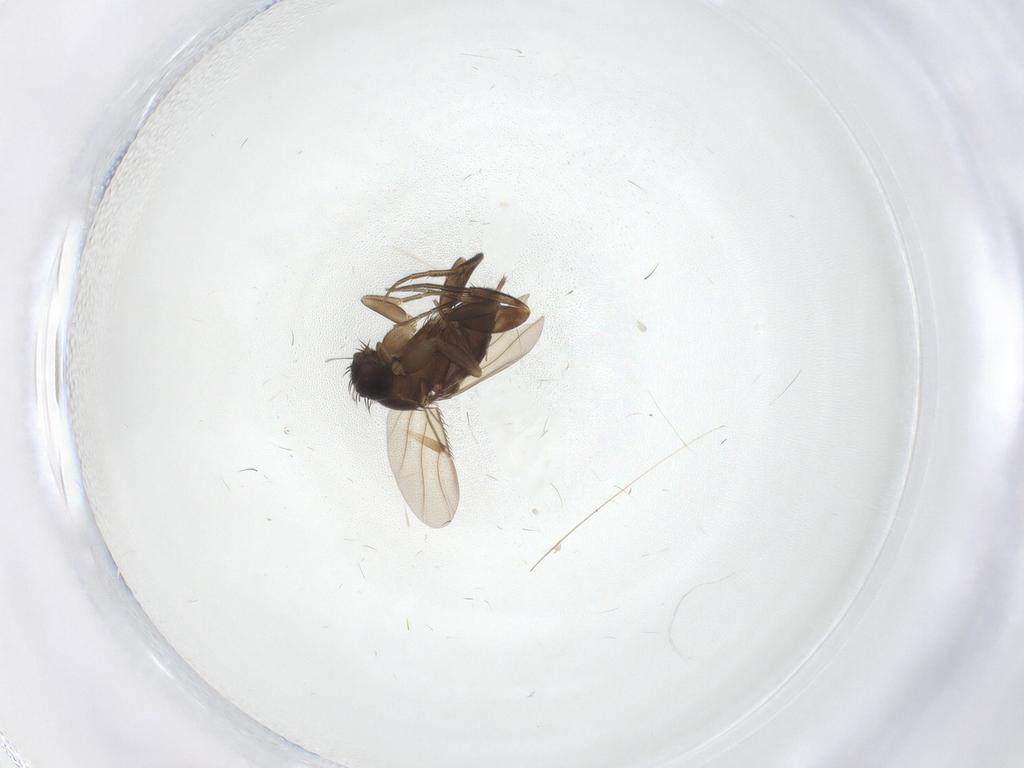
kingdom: Animalia
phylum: Arthropoda
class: Insecta
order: Diptera
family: Phoridae
